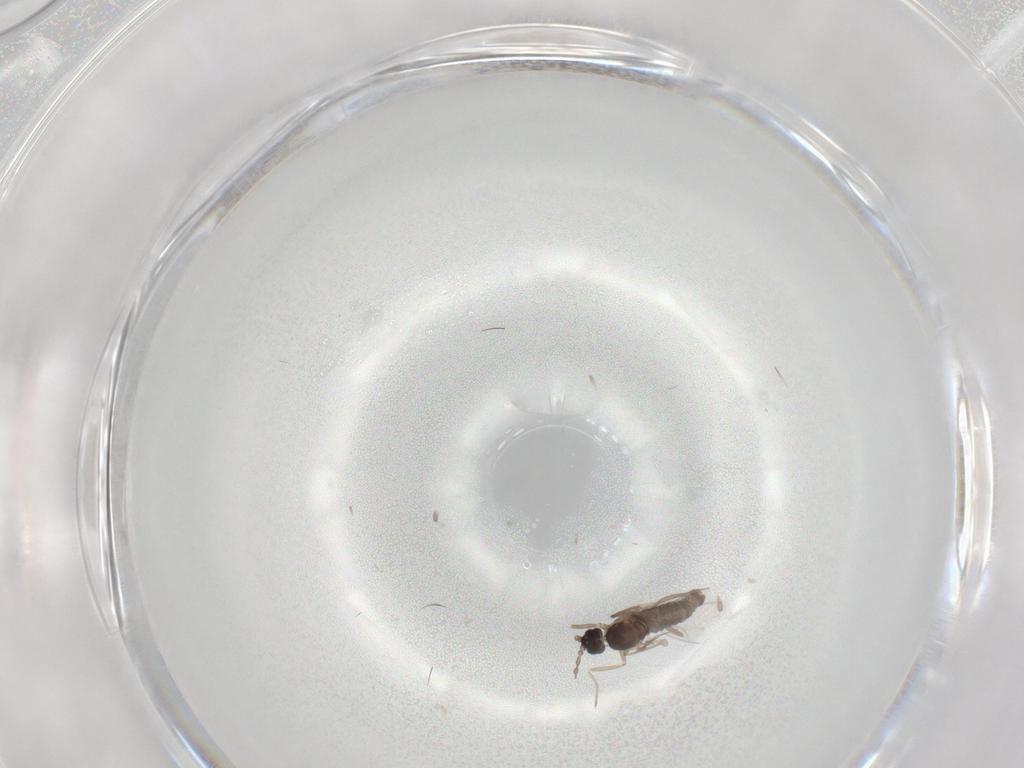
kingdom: Animalia
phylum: Arthropoda
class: Insecta
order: Diptera
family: Cecidomyiidae
